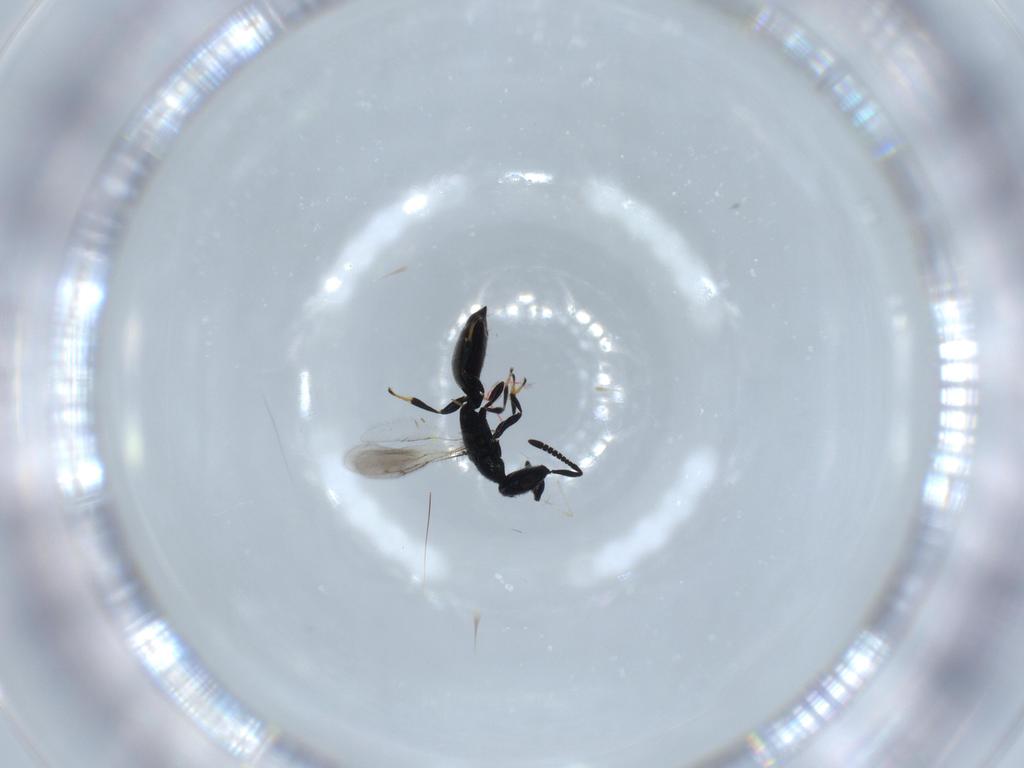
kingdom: Animalia
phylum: Arthropoda
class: Insecta
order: Hymenoptera
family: Spalangiidae
